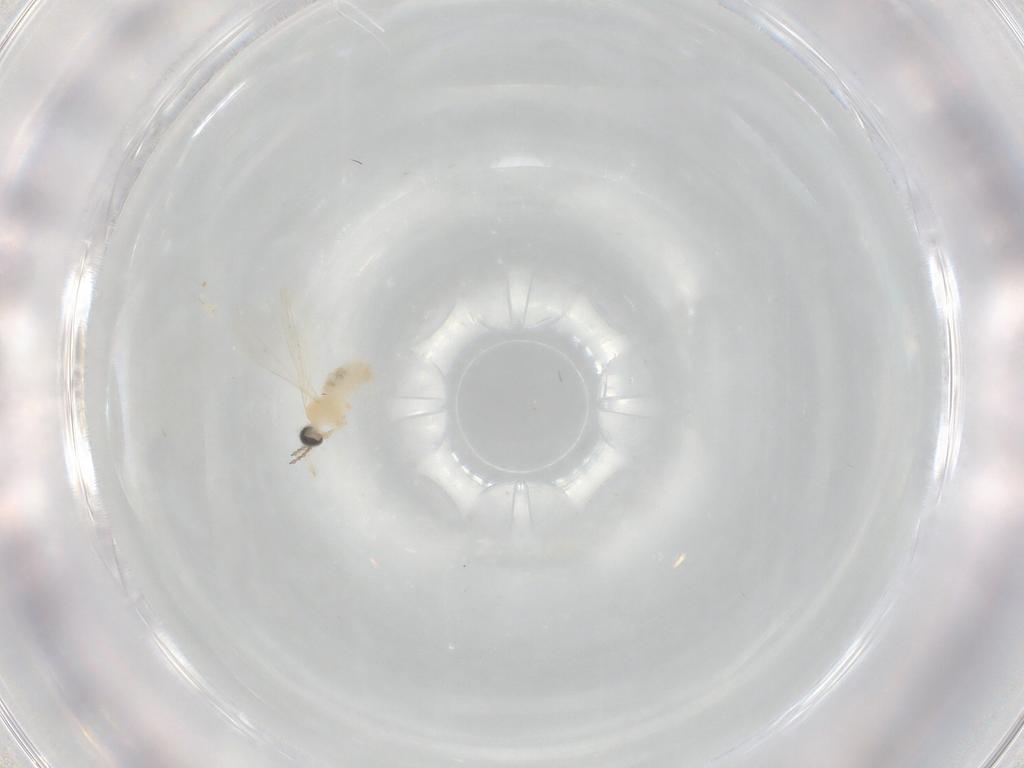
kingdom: Animalia
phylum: Arthropoda
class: Insecta
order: Diptera
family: Cecidomyiidae
